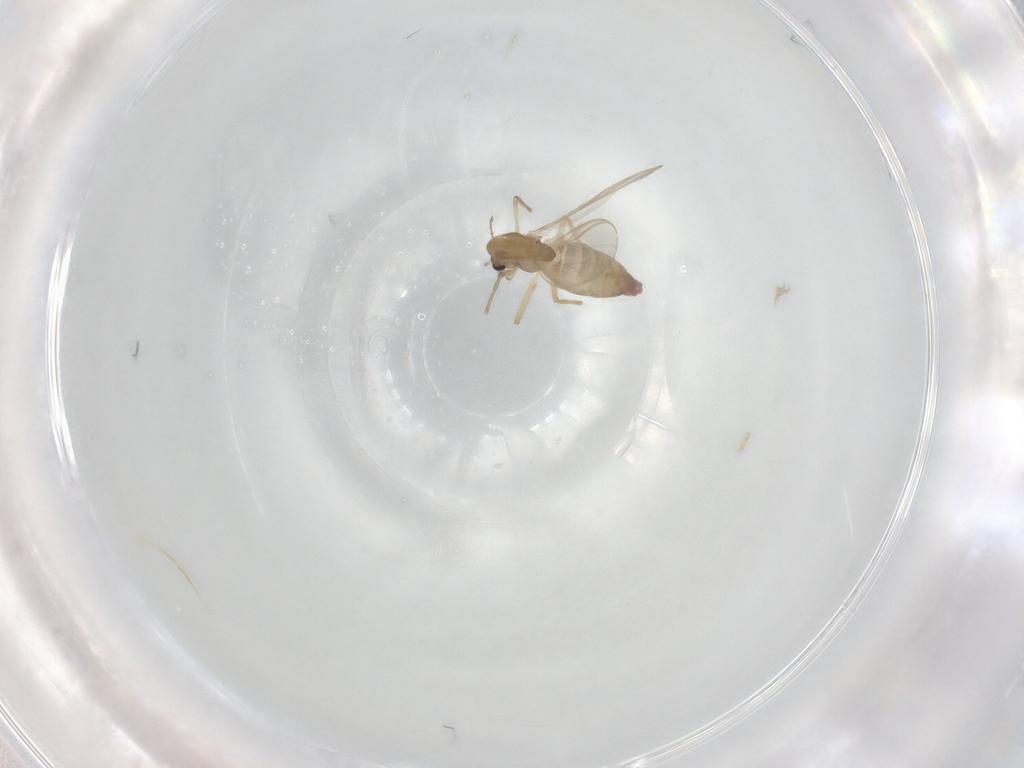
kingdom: Animalia
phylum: Arthropoda
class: Insecta
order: Diptera
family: Chironomidae
